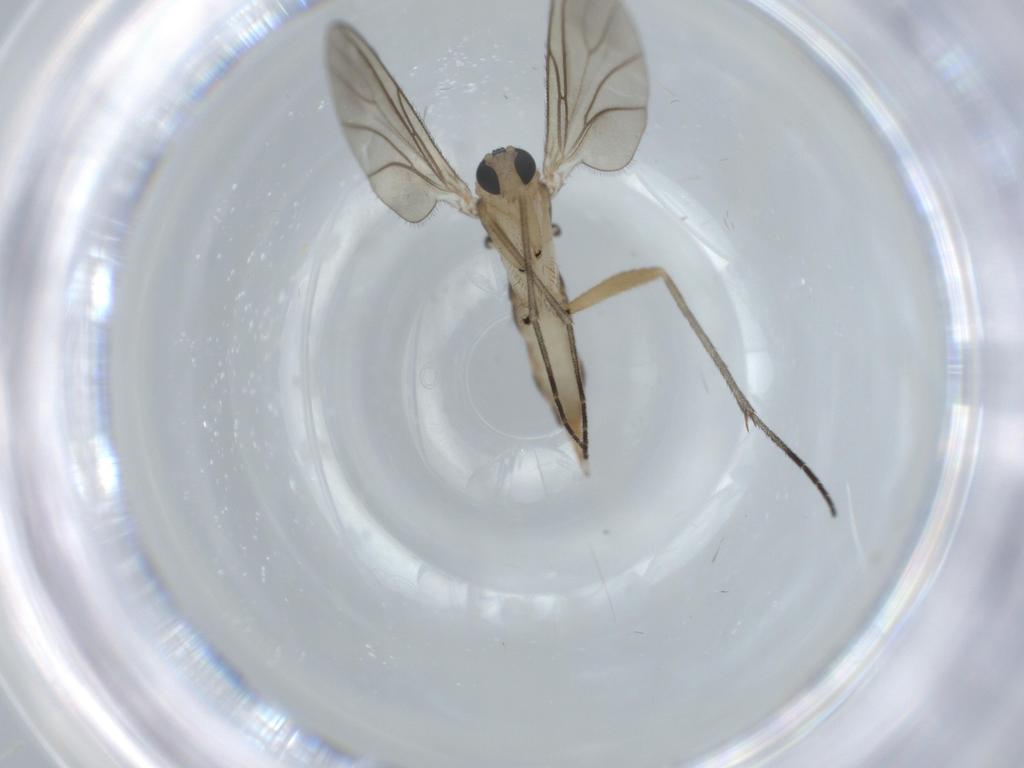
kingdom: Animalia
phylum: Arthropoda
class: Insecta
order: Diptera
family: Sciaridae
